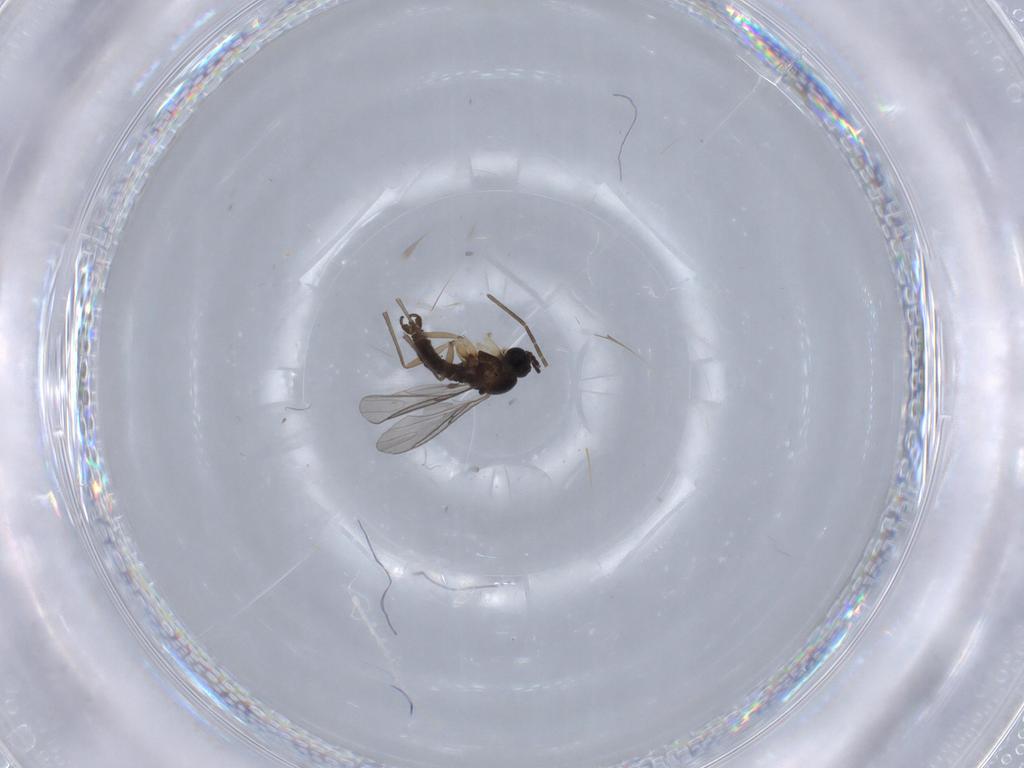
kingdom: Animalia
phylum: Arthropoda
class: Insecta
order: Diptera
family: Sciaridae
